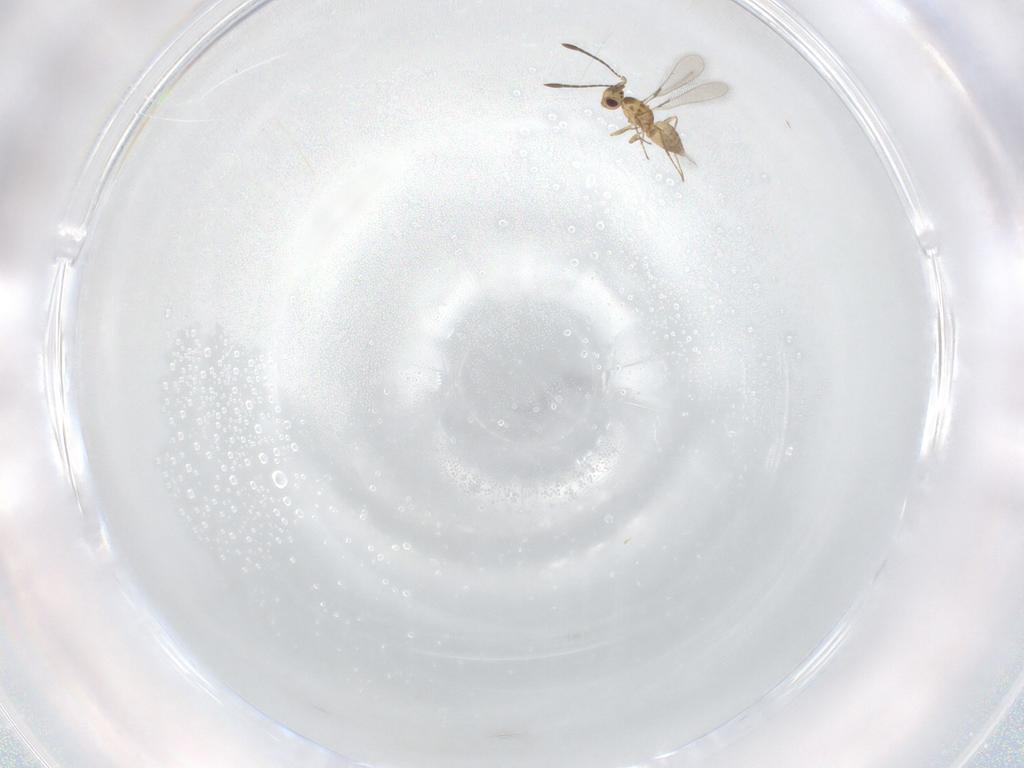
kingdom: Animalia
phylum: Arthropoda
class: Insecta
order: Hymenoptera
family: Mymaridae
